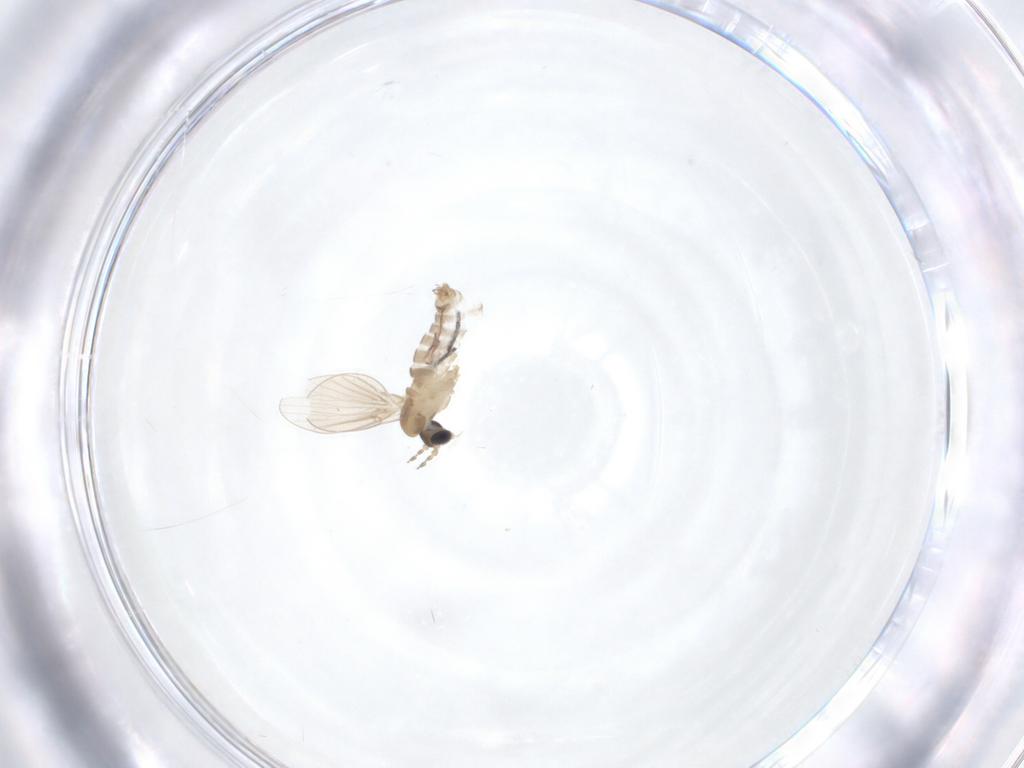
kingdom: Animalia
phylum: Arthropoda
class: Insecta
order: Diptera
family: Psychodidae
